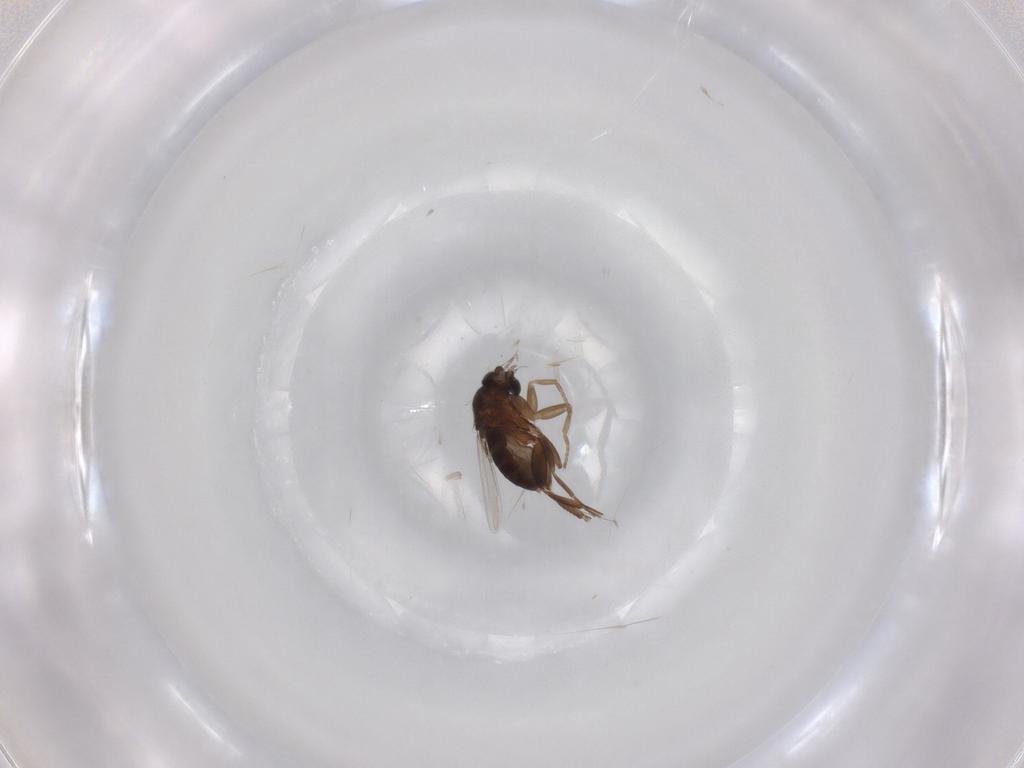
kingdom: Animalia
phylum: Arthropoda
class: Insecta
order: Diptera
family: Phoridae
